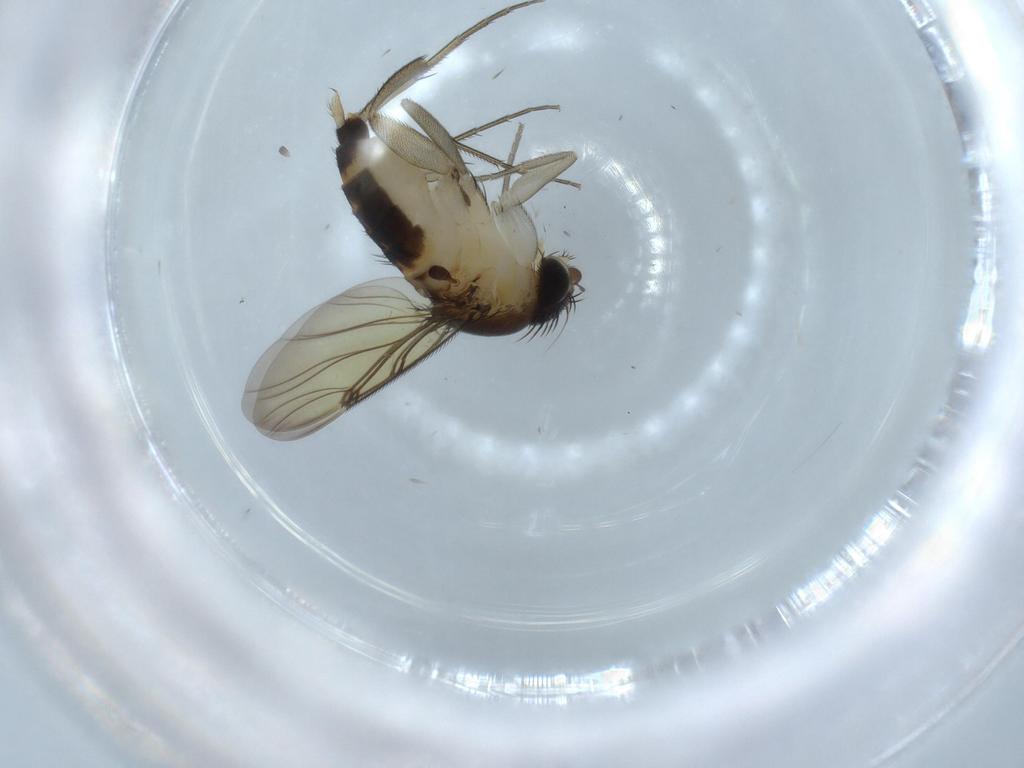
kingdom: Animalia
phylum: Arthropoda
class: Insecta
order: Diptera
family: Phoridae
